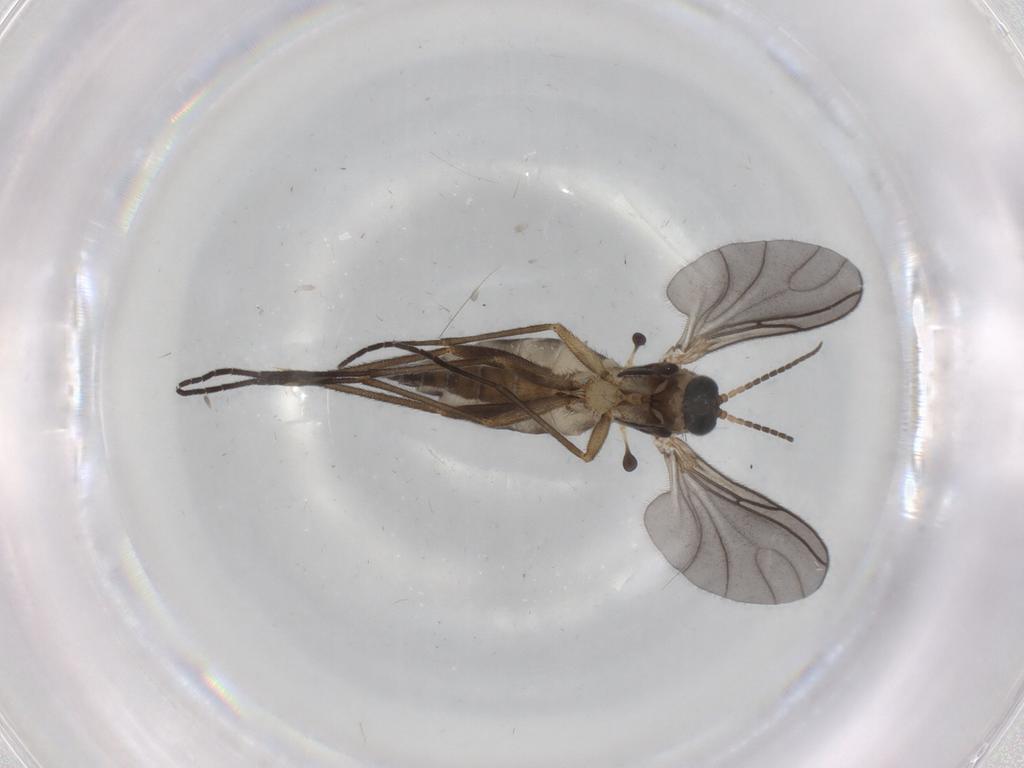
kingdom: Animalia
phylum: Arthropoda
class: Insecta
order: Diptera
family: Sciaridae
